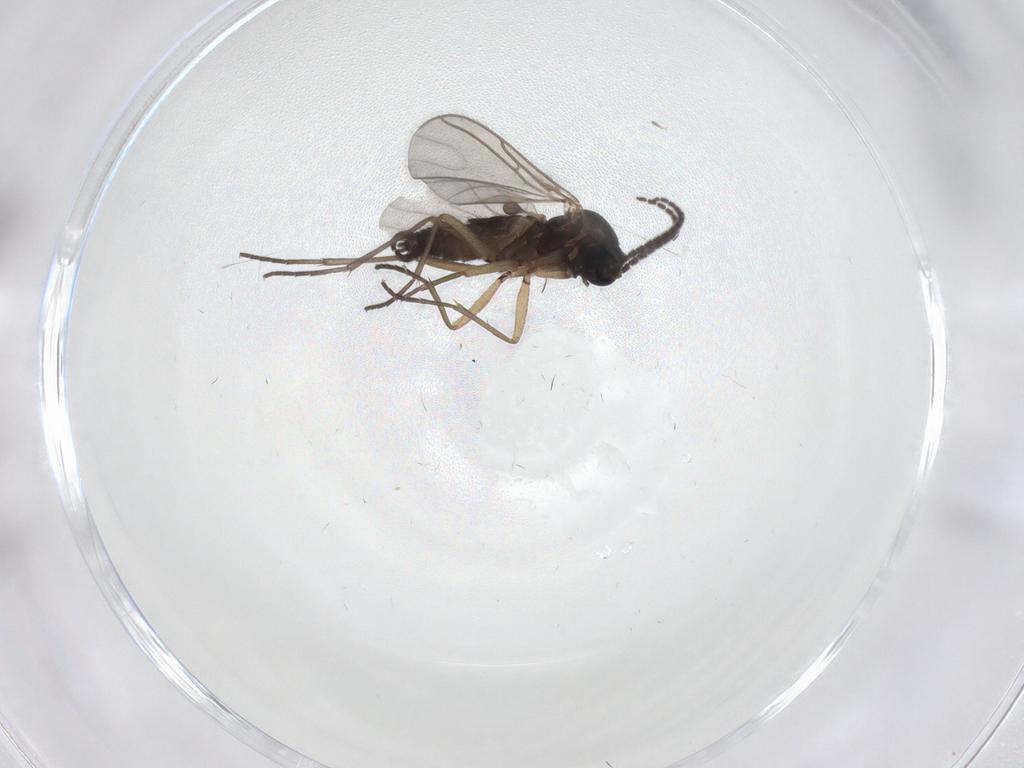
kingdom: Animalia
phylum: Arthropoda
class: Insecta
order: Diptera
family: Sciaridae
